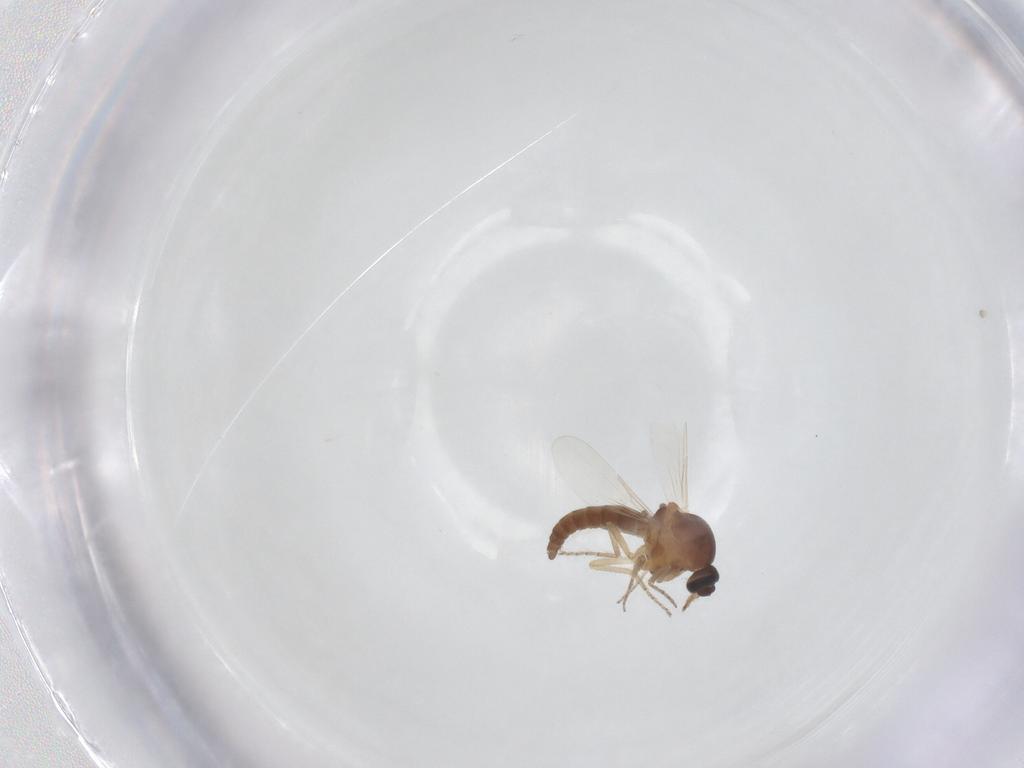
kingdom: Animalia
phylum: Arthropoda
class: Insecta
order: Diptera
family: Ceratopogonidae
